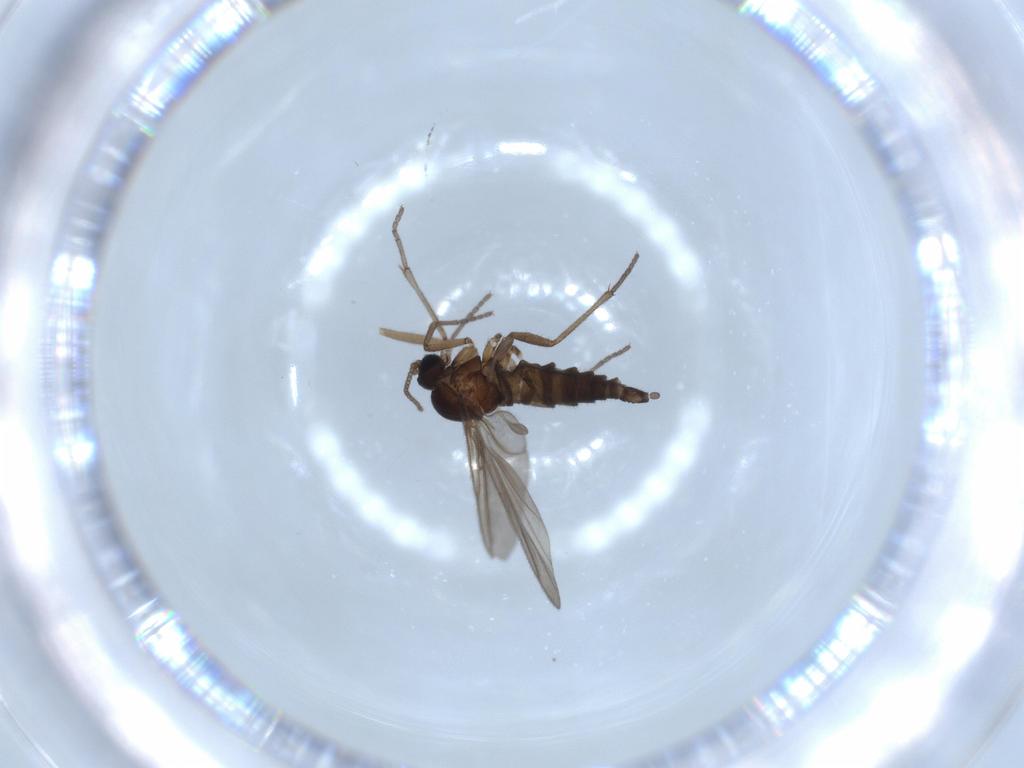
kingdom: Animalia
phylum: Arthropoda
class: Insecta
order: Diptera
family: Sciaridae
